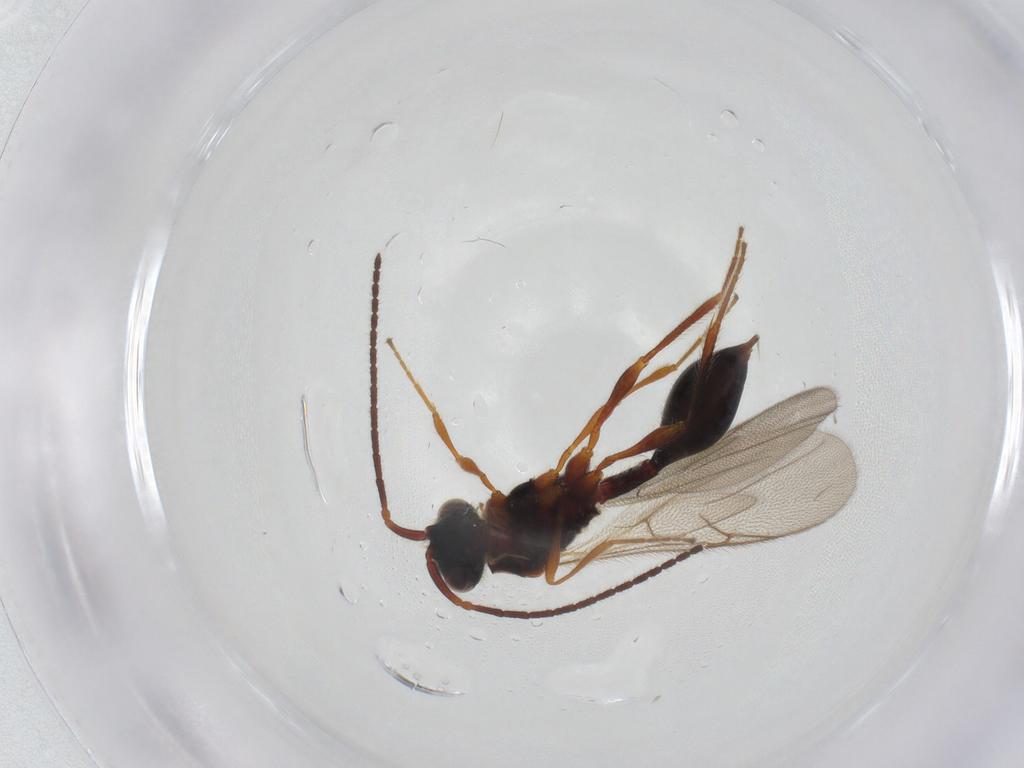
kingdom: Animalia
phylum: Arthropoda
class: Insecta
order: Hymenoptera
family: Diapriidae
